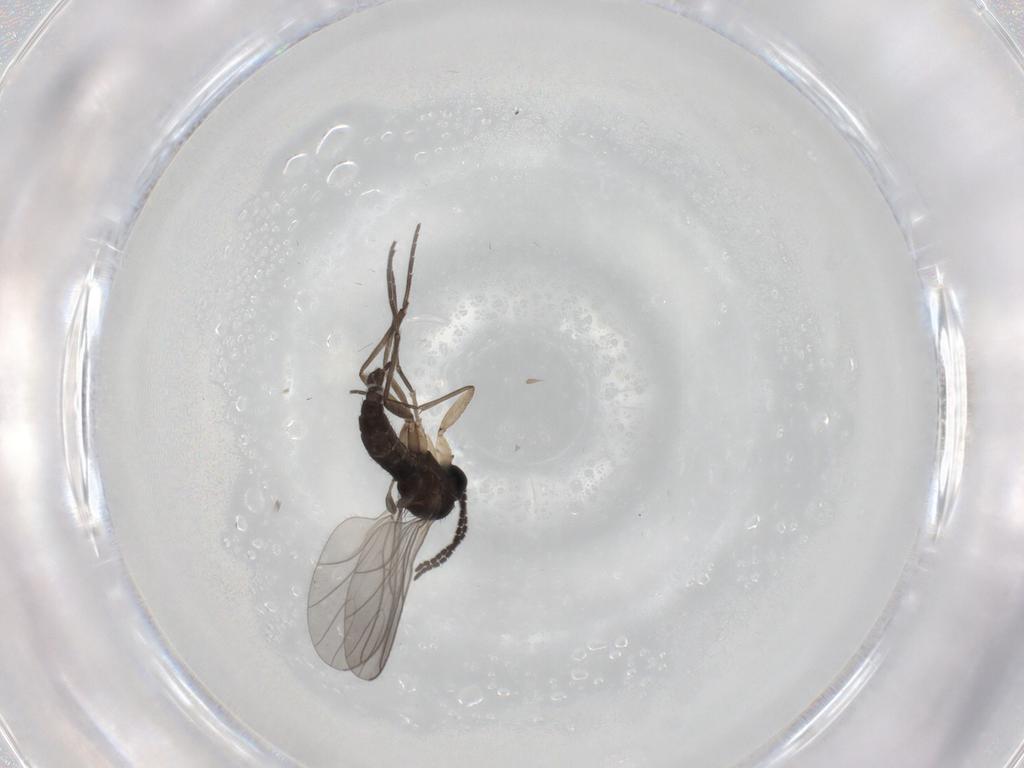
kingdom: Animalia
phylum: Arthropoda
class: Insecta
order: Diptera
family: Sciaridae
